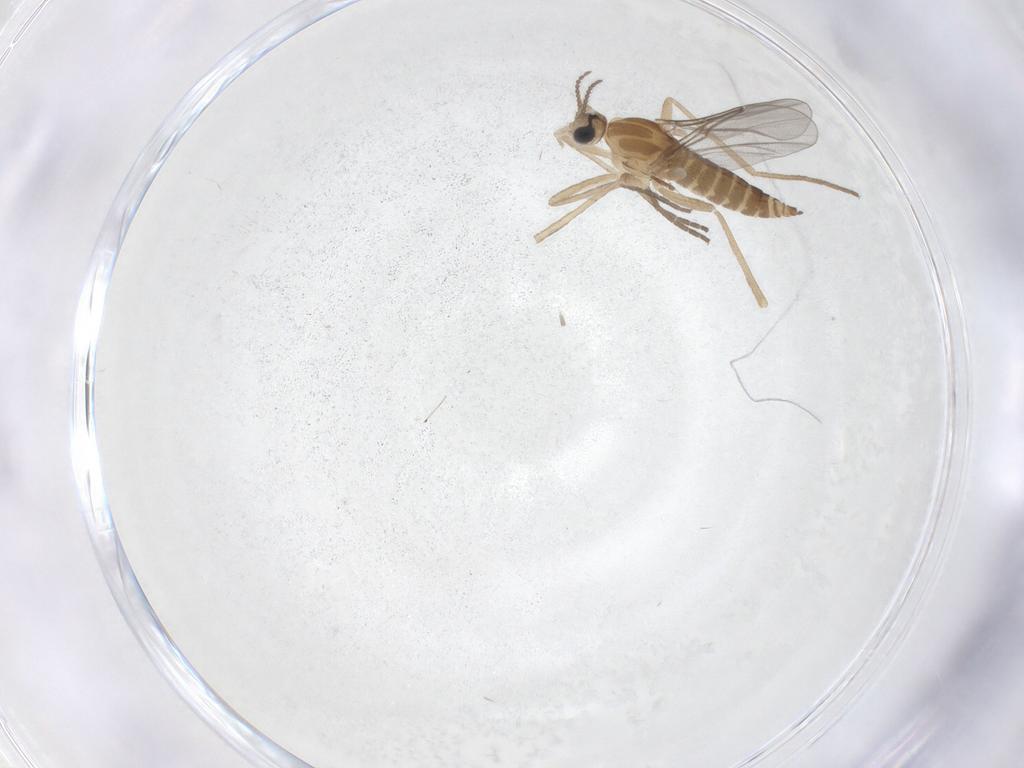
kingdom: Animalia
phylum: Arthropoda
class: Insecta
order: Diptera
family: Cecidomyiidae
